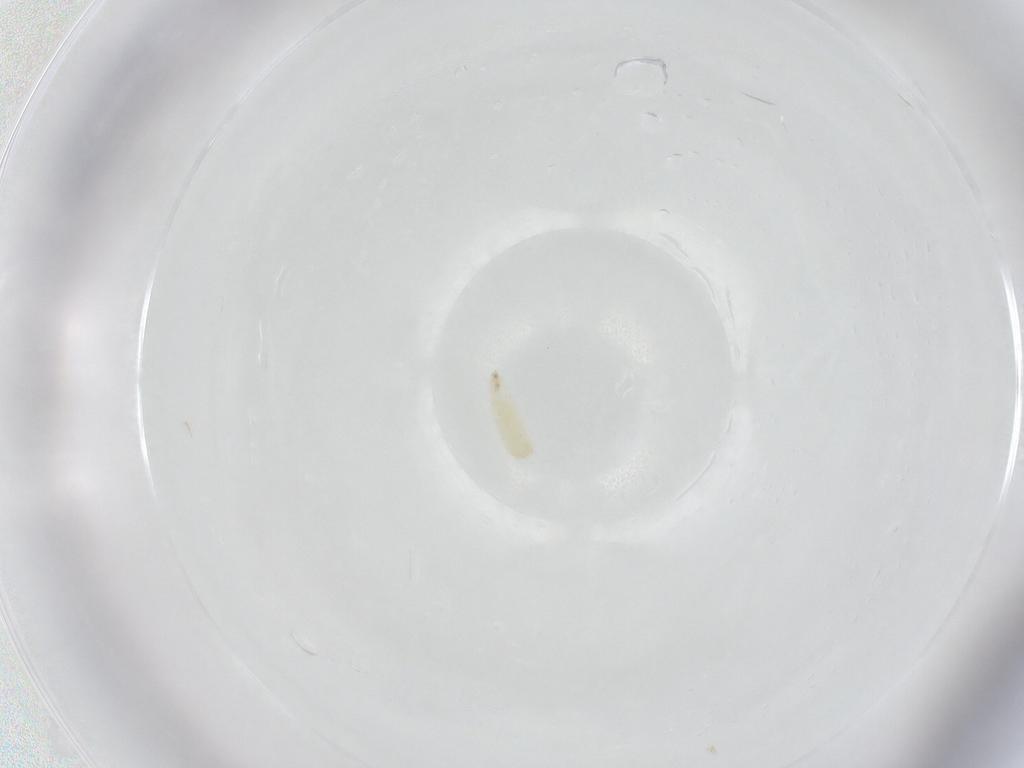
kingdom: Animalia
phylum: Arthropoda
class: Insecta
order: Diptera
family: Sarcophagidae
